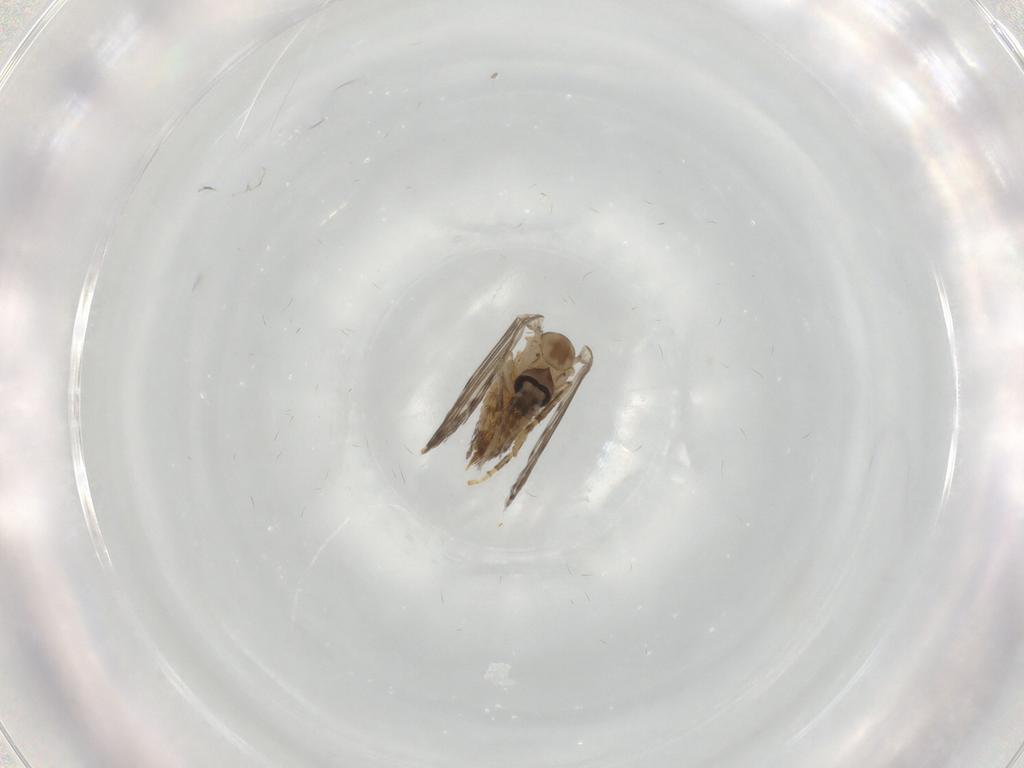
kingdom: Animalia
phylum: Arthropoda
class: Insecta
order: Diptera
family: Psychodidae
